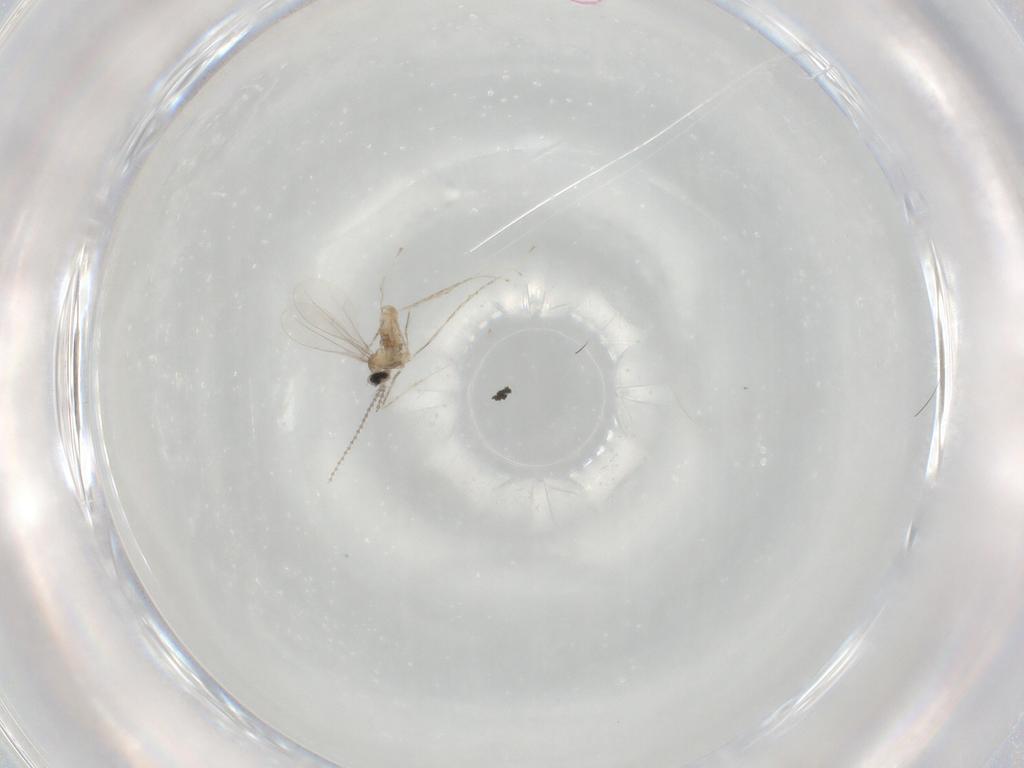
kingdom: Animalia
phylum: Arthropoda
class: Insecta
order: Diptera
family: Cecidomyiidae
